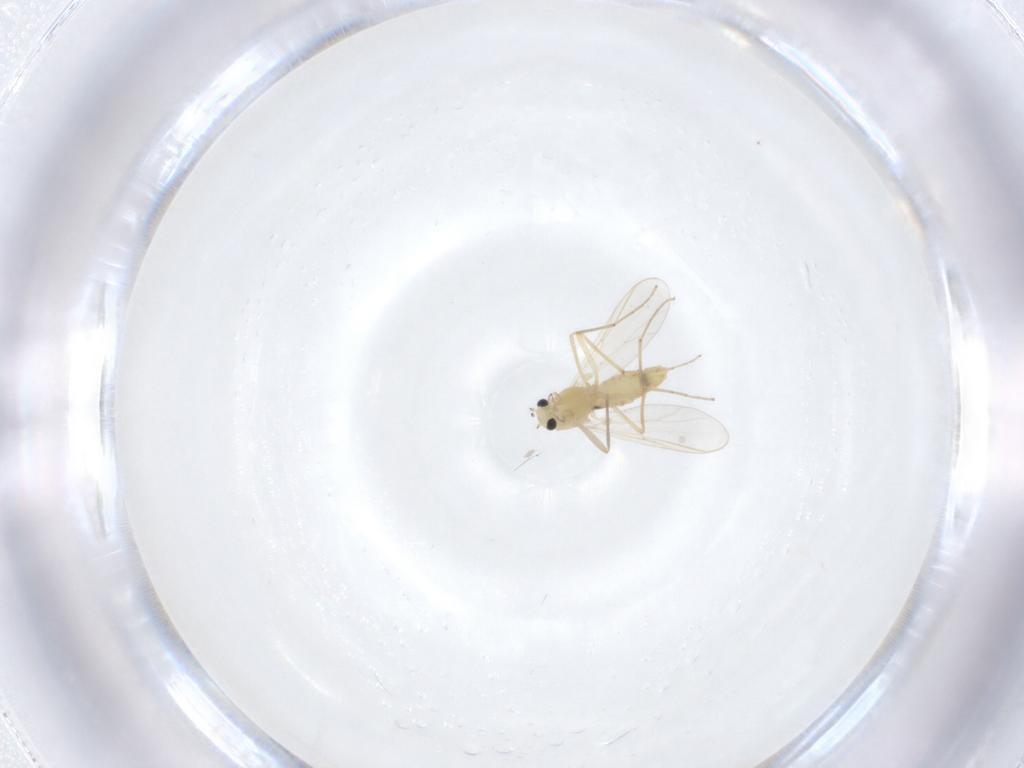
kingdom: Animalia
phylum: Arthropoda
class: Insecta
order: Diptera
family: Chironomidae
